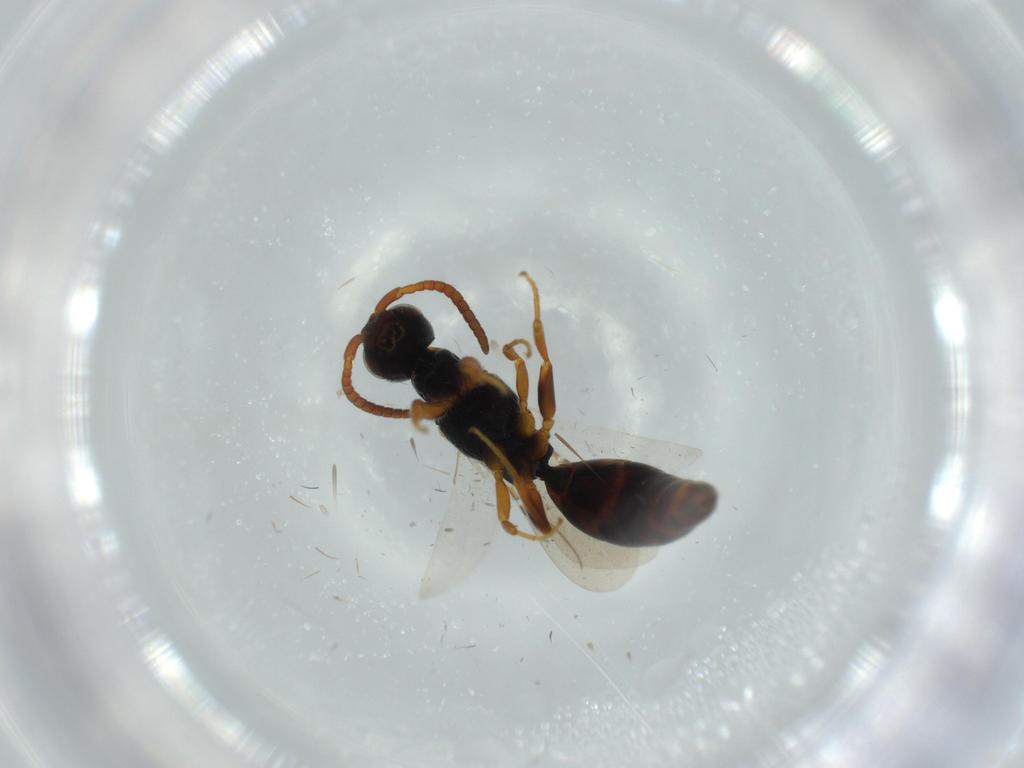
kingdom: Animalia
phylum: Arthropoda
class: Insecta
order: Hymenoptera
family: Bethylidae
